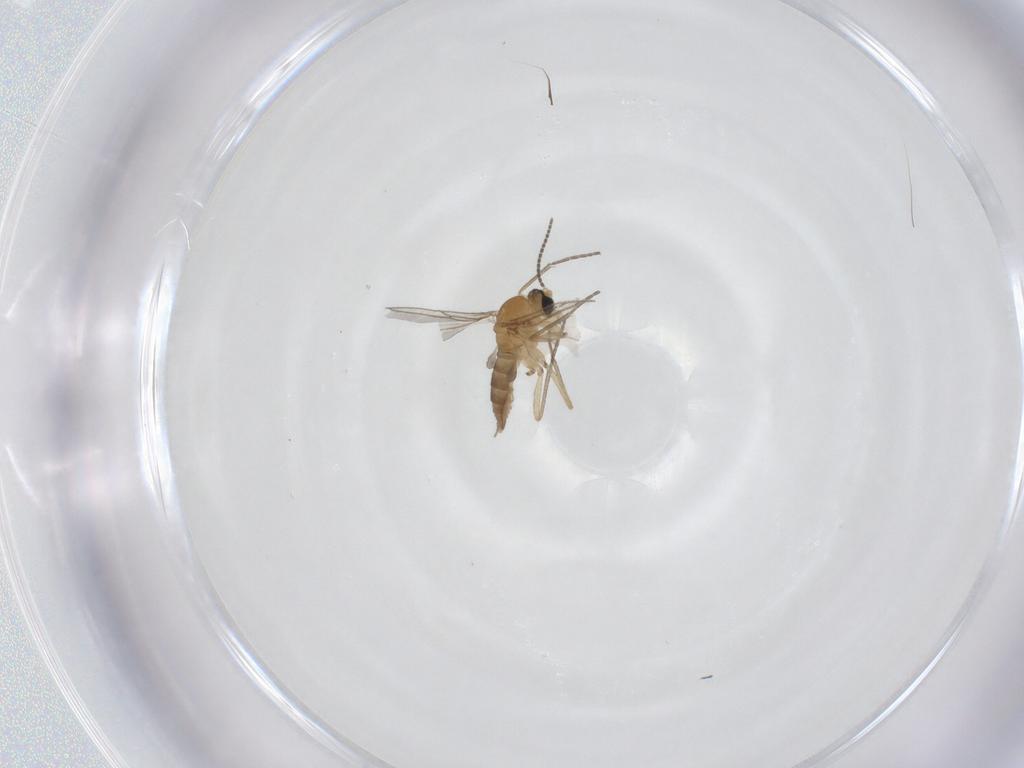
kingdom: Animalia
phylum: Arthropoda
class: Insecta
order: Diptera
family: Sciaridae
